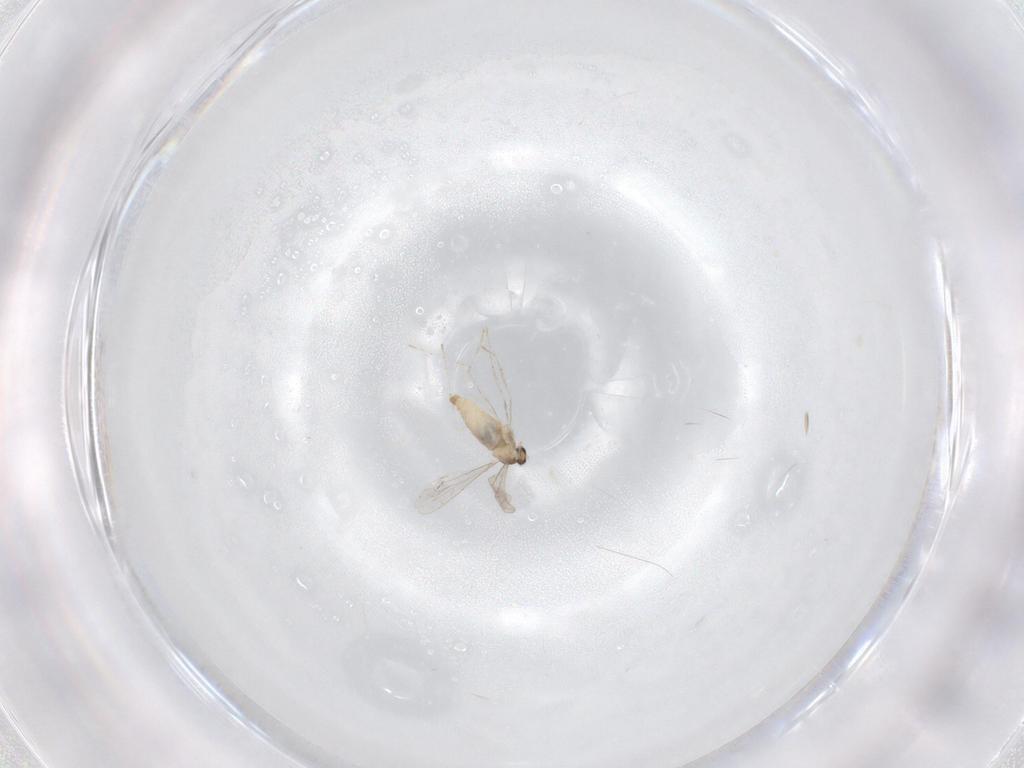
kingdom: Animalia
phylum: Arthropoda
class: Insecta
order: Diptera
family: Cecidomyiidae
